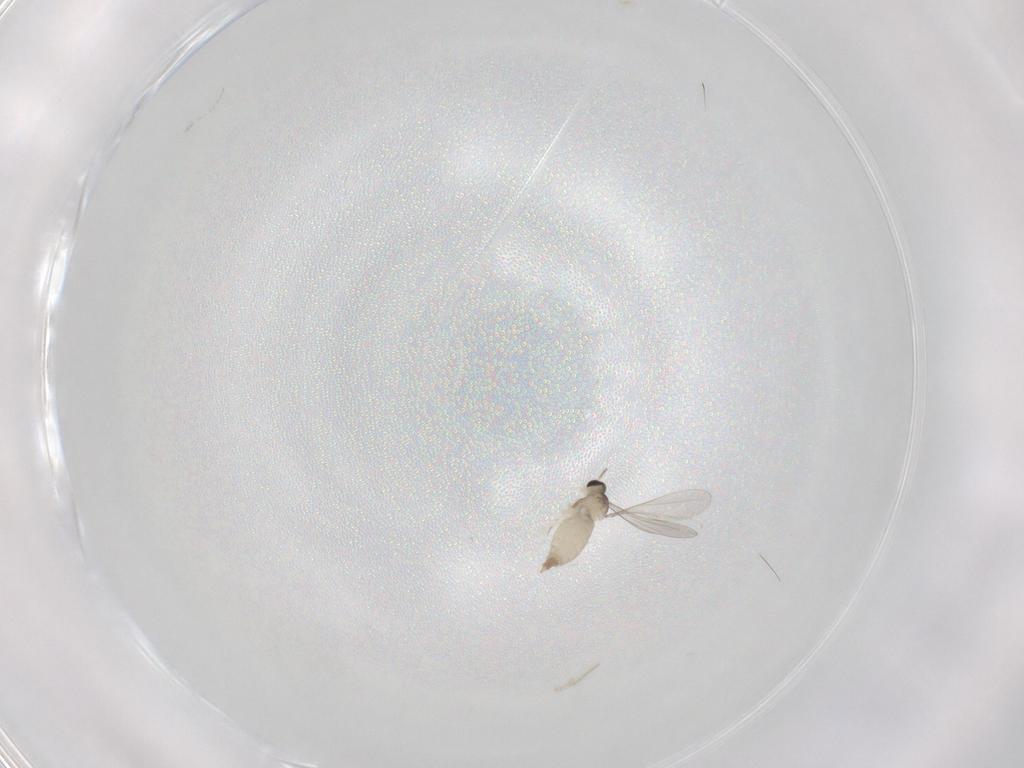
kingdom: Animalia
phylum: Arthropoda
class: Insecta
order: Diptera
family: Cecidomyiidae
